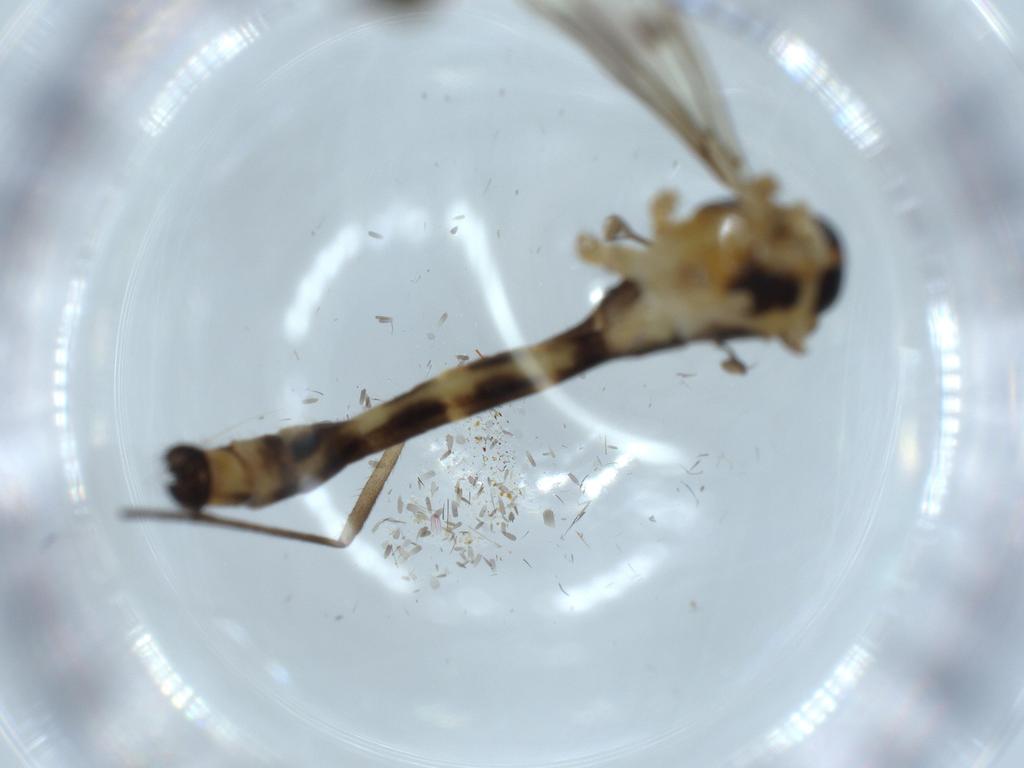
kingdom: Animalia
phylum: Arthropoda
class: Insecta
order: Diptera
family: Limoniidae
